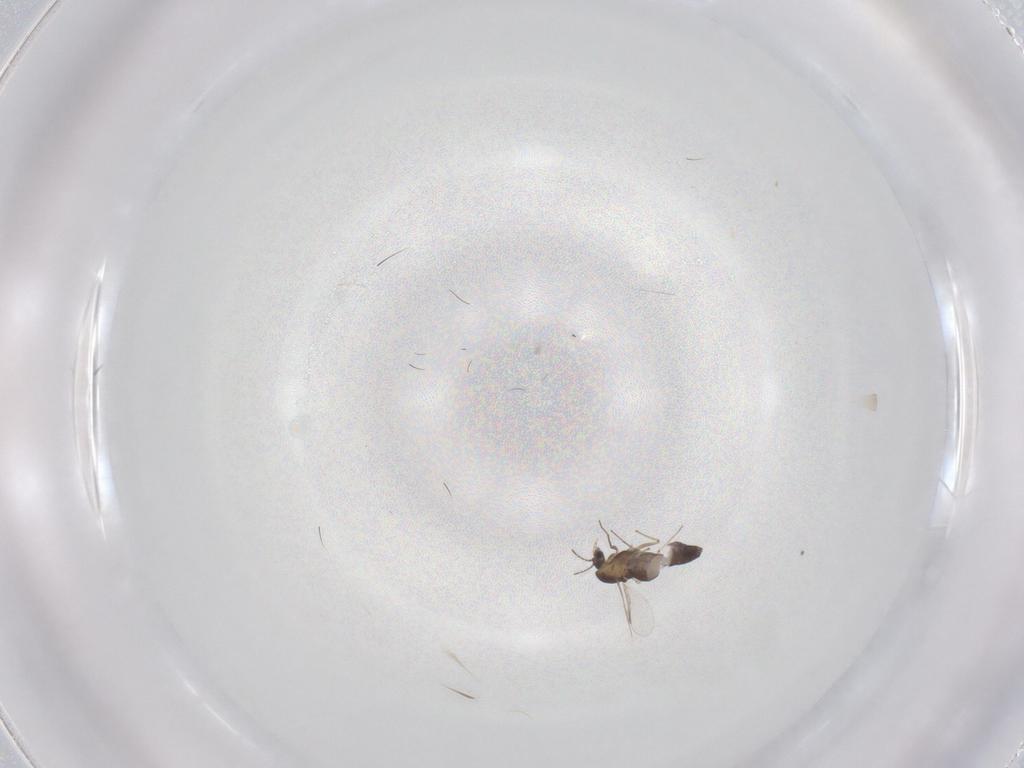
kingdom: Animalia
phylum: Arthropoda
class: Insecta
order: Diptera
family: Chironomidae
